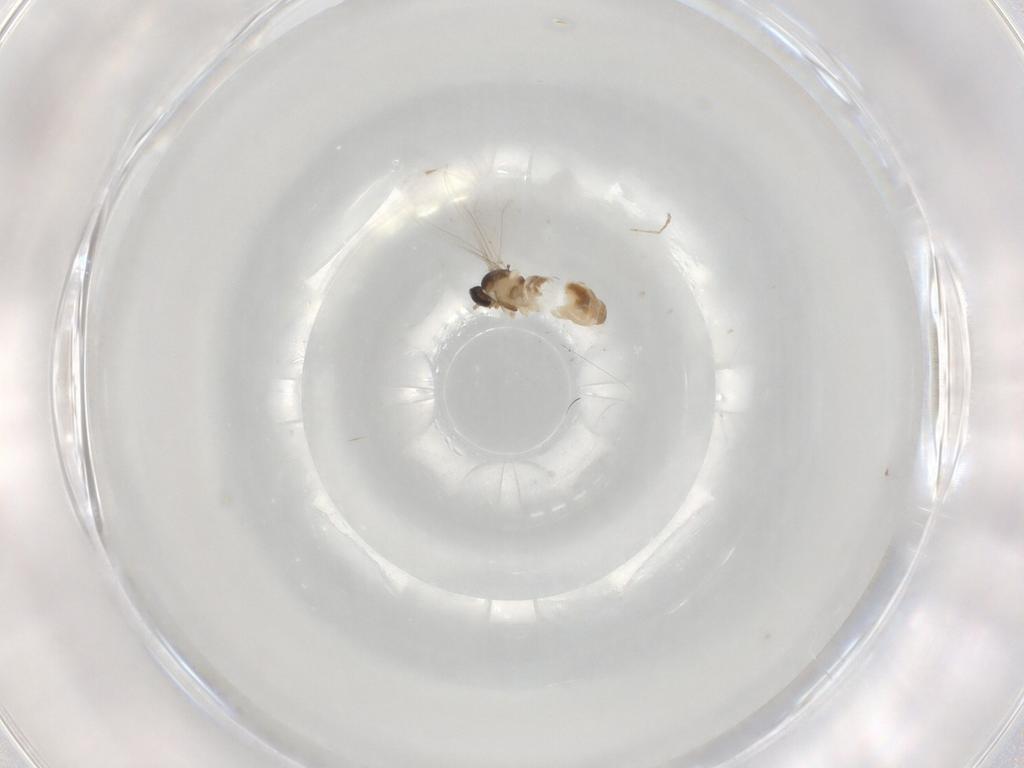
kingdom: Animalia
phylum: Arthropoda
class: Insecta
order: Diptera
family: Cecidomyiidae
